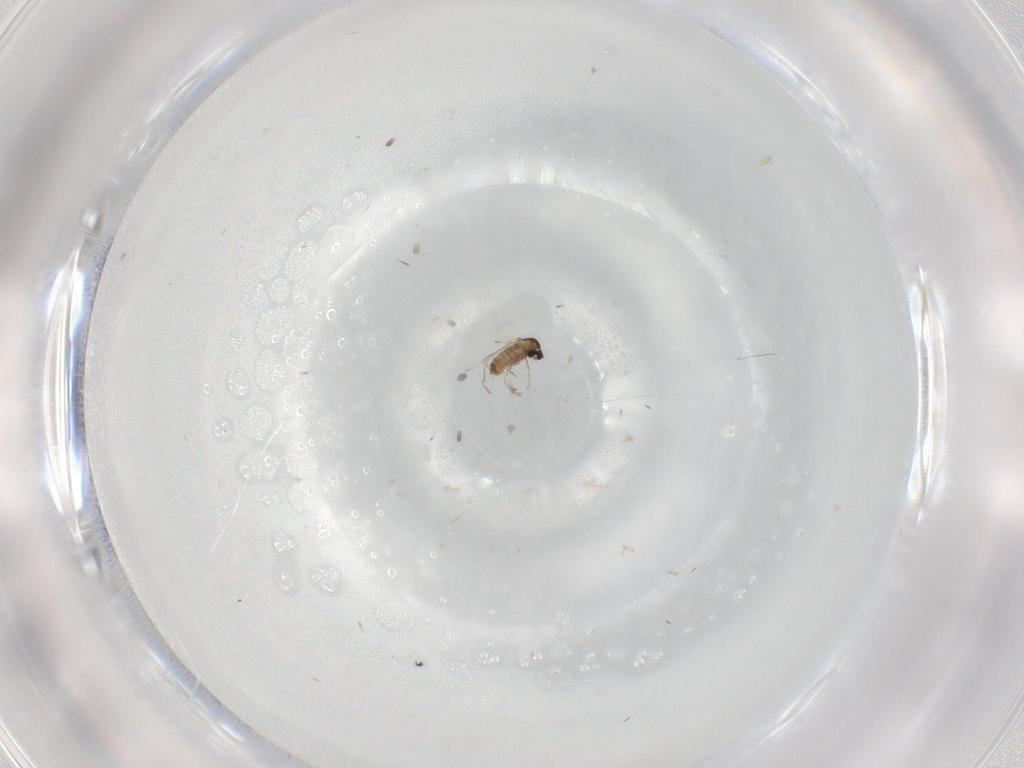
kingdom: Animalia
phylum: Arthropoda
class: Insecta
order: Diptera
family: Cecidomyiidae
